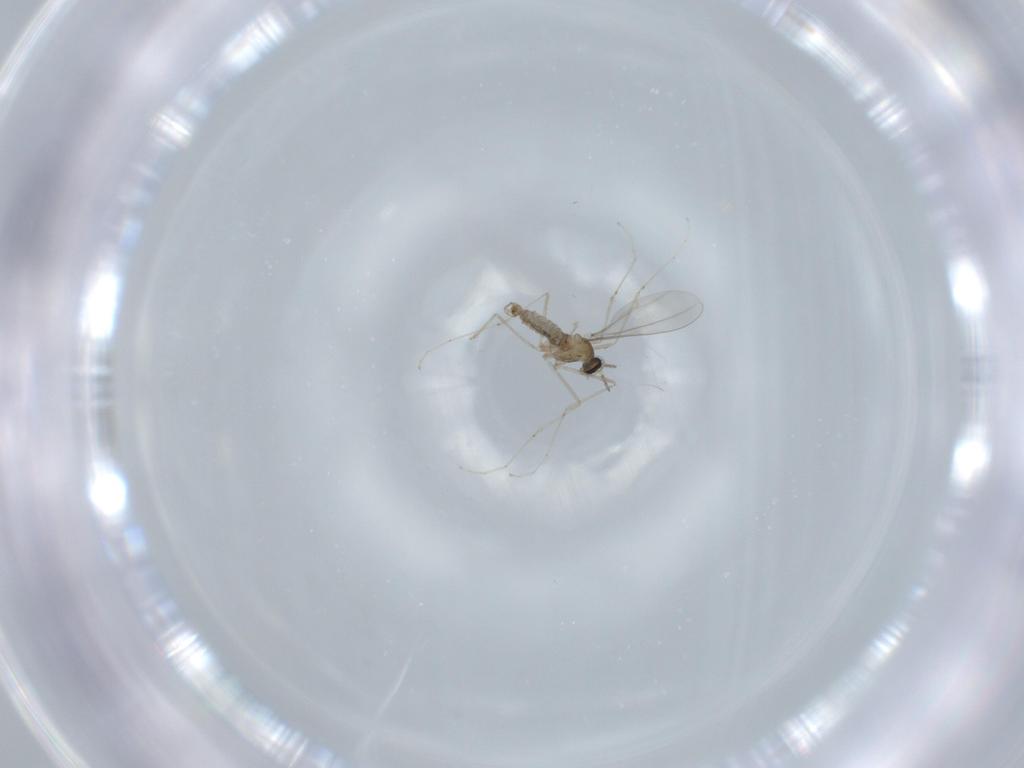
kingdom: Animalia
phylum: Arthropoda
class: Insecta
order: Diptera
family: Cecidomyiidae
